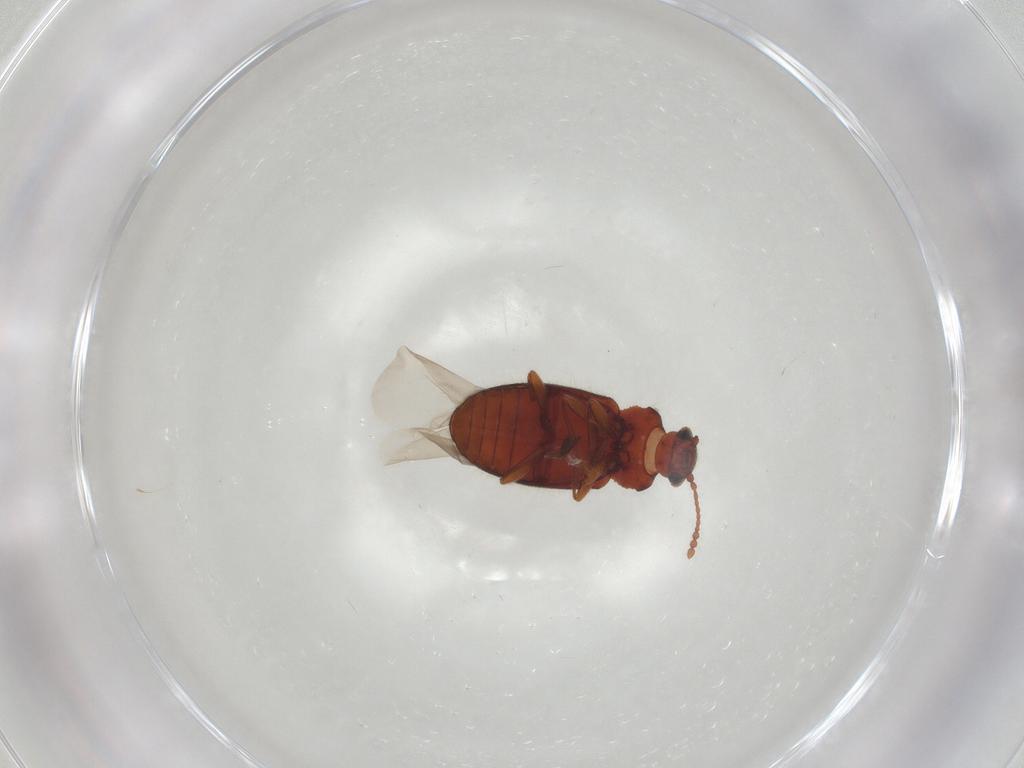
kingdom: Animalia
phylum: Arthropoda
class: Insecta
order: Coleoptera
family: Cryptophagidae
